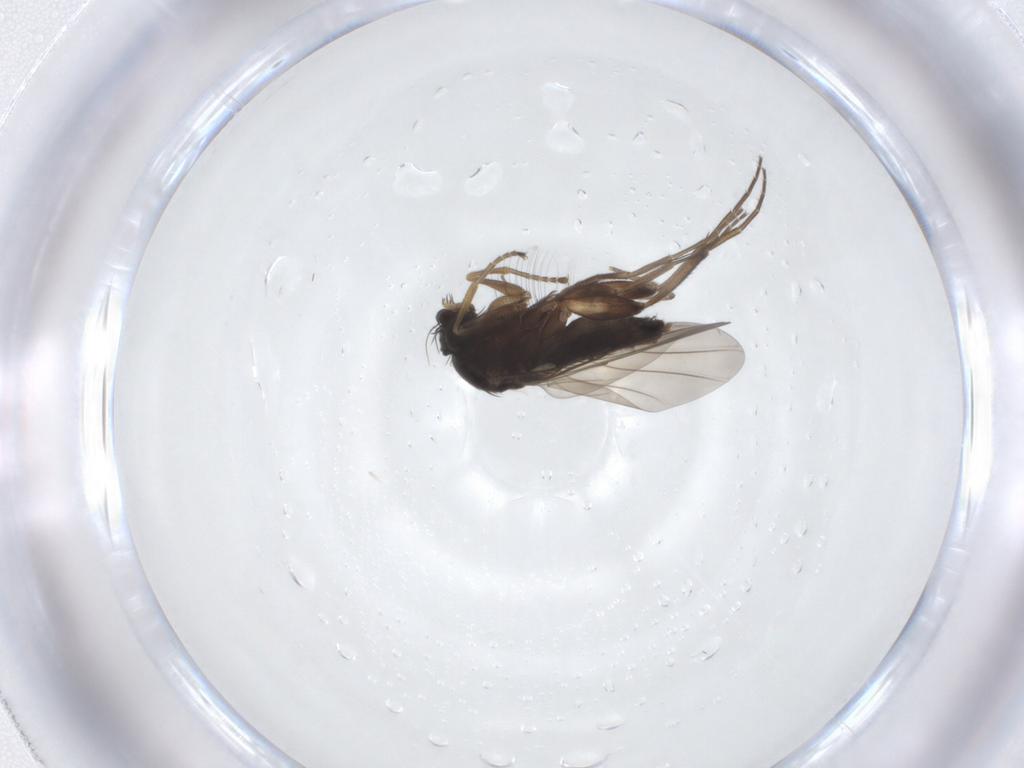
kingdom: Animalia
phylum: Arthropoda
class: Insecta
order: Diptera
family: Phoridae
